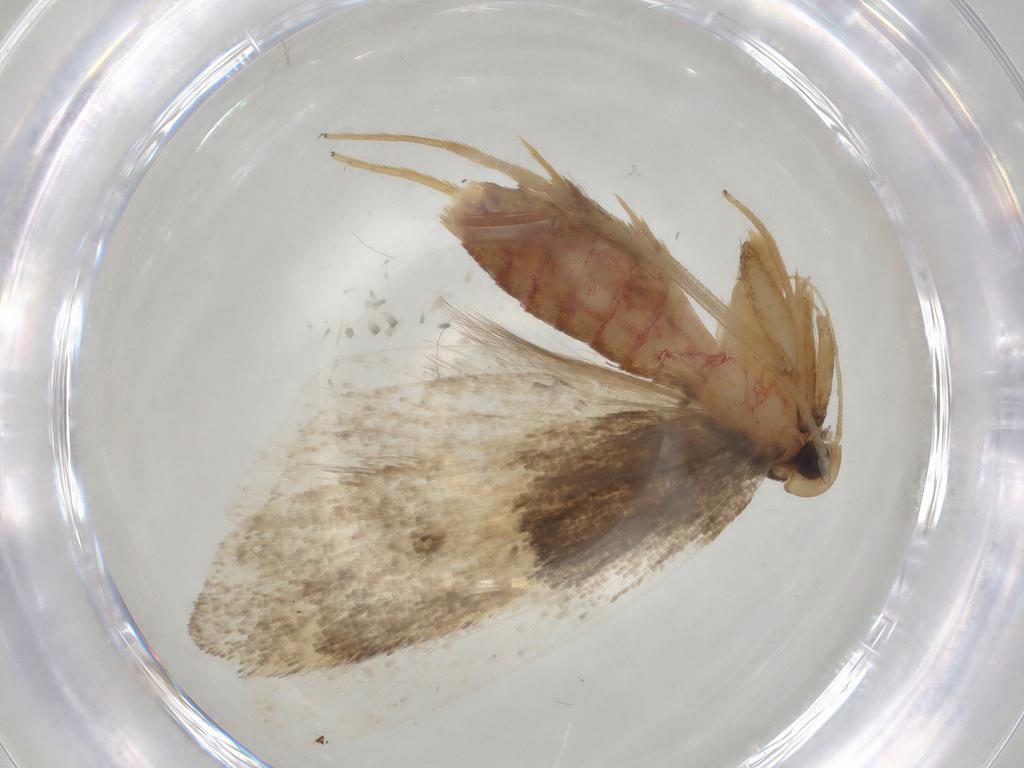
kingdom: Animalia
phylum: Arthropoda
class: Insecta
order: Lepidoptera
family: Lecithoceridae
